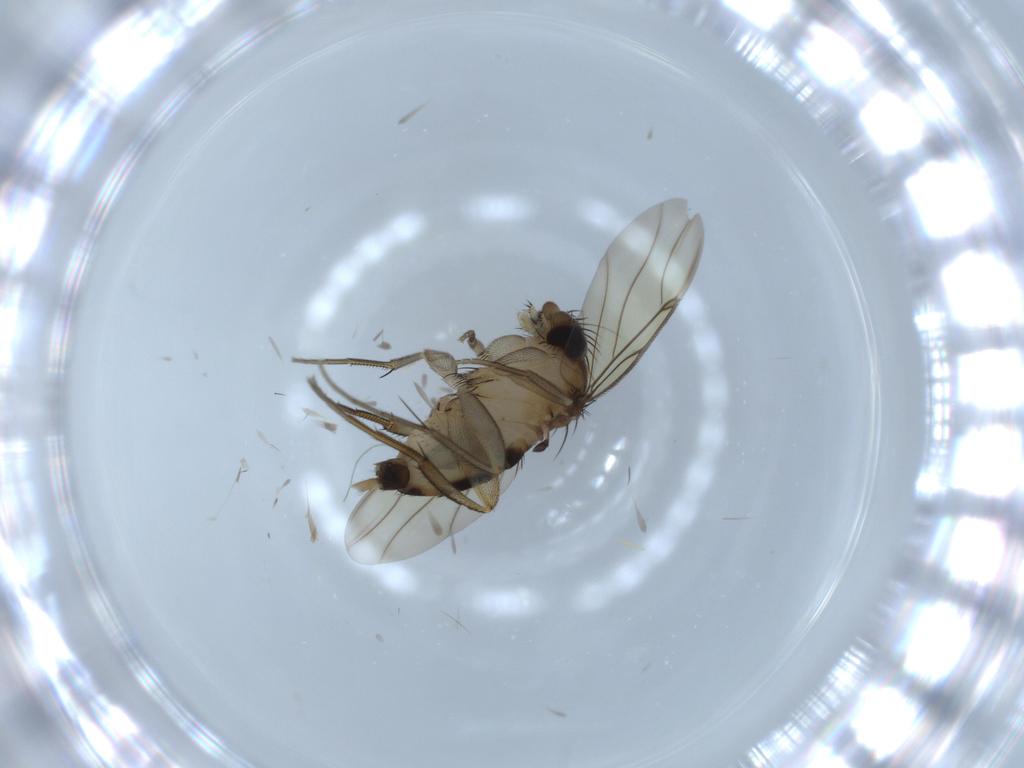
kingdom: Animalia
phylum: Arthropoda
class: Insecta
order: Diptera
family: Phoridae
